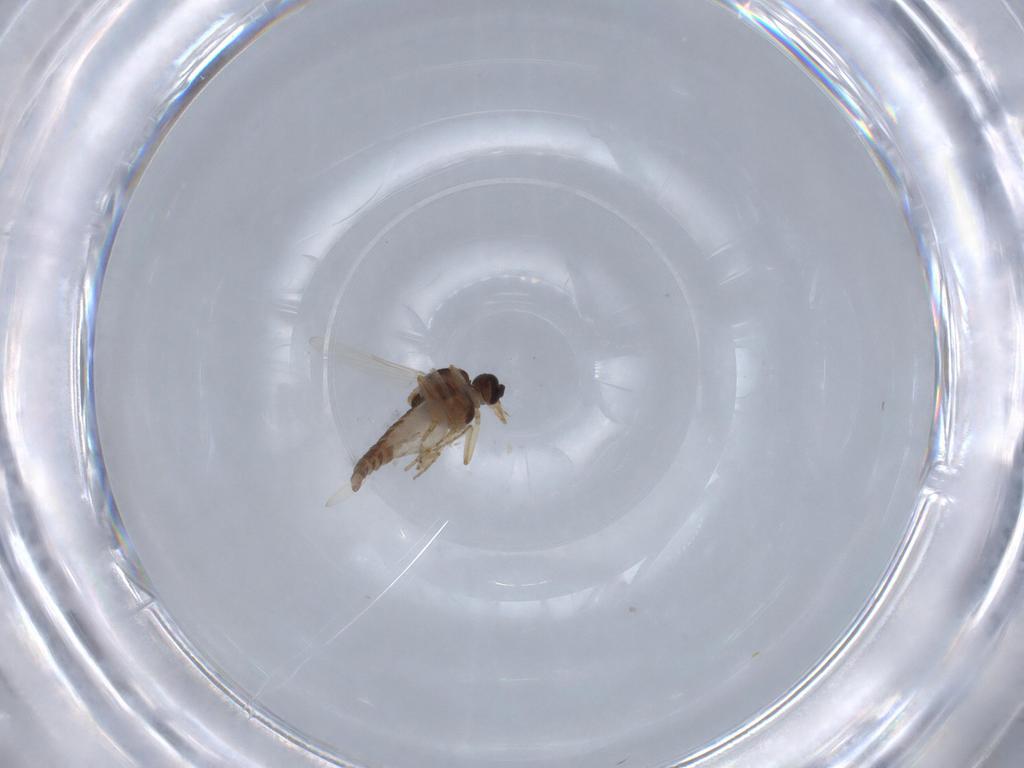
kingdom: Animalia
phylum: Arthropoda
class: Insecta
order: Diptera
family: Ceratopogonidae
